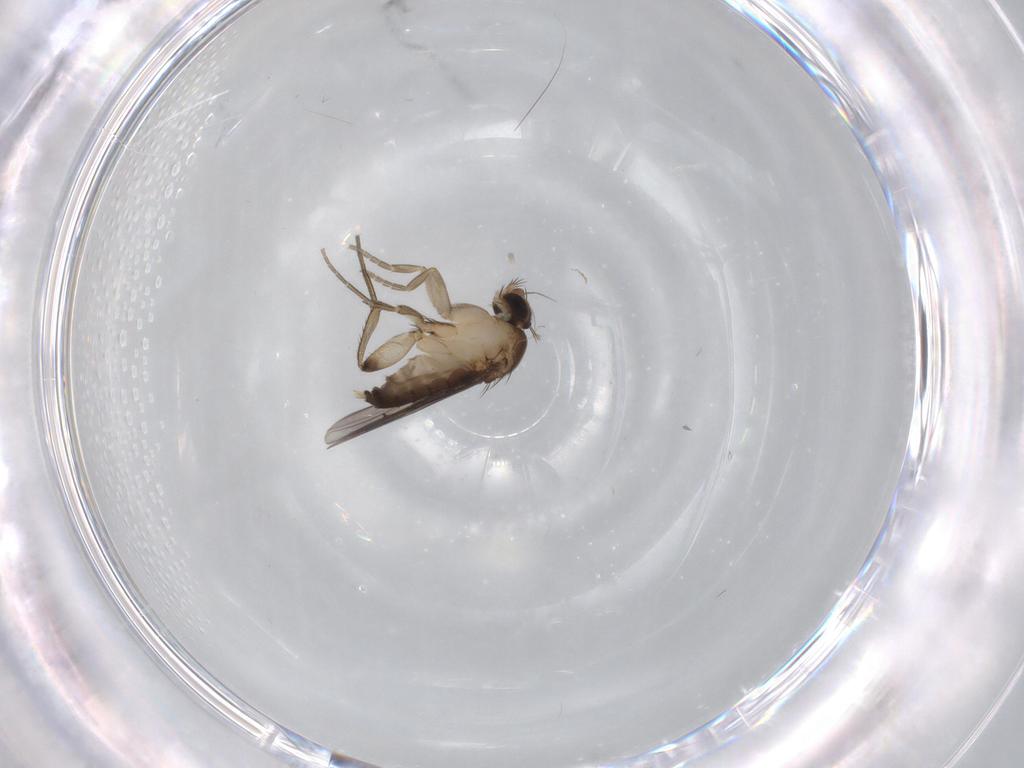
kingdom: Animalia
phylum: Arthropoda
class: Insecta
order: Diptera
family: Phoridae
